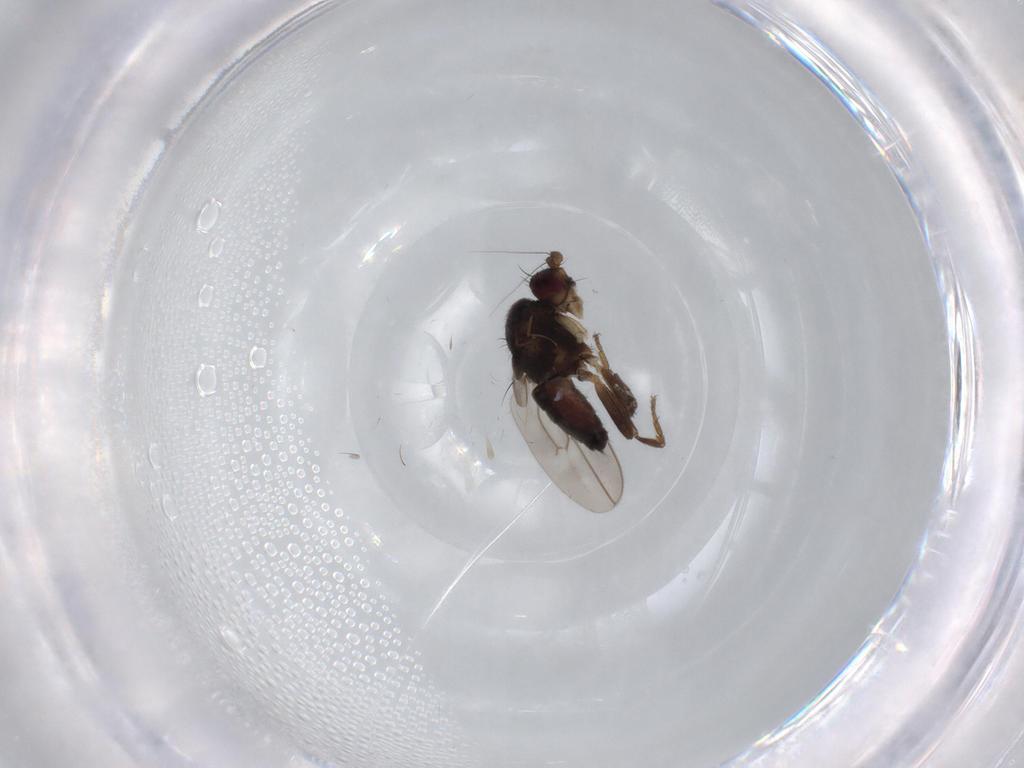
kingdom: Animalia
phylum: Arthropoda
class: Insecta
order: Diptera
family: Sphaeroceridae
